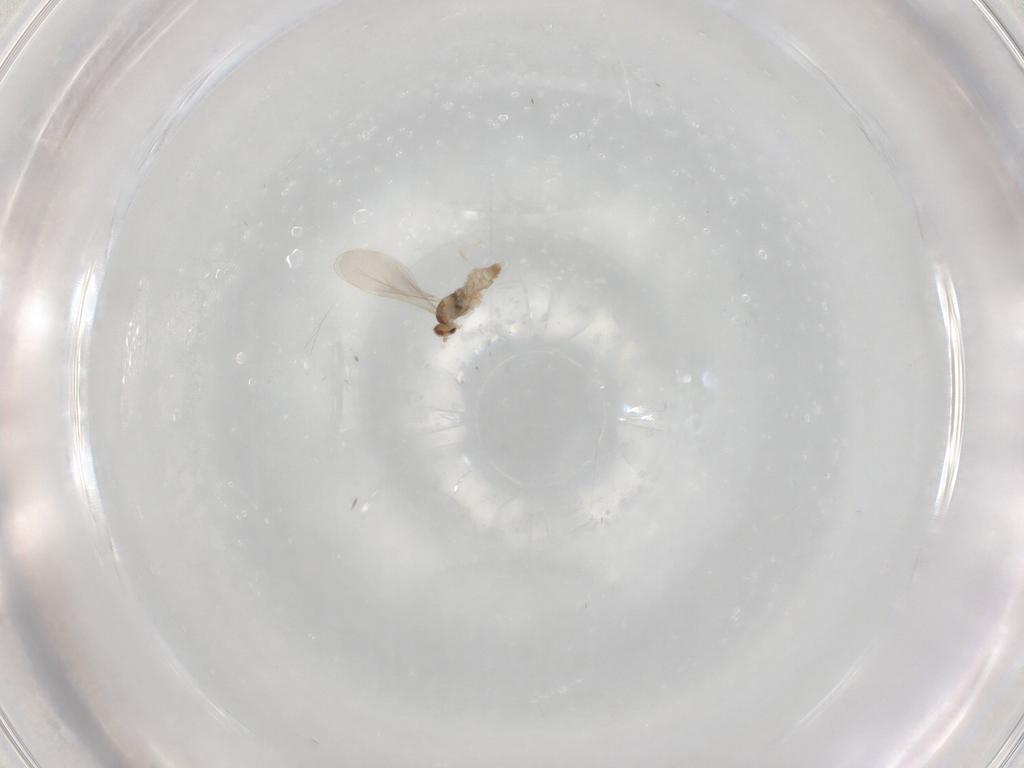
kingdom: Animalia
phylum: Arthropoda
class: Insecta
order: Diptera
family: Cecidomyiidae
